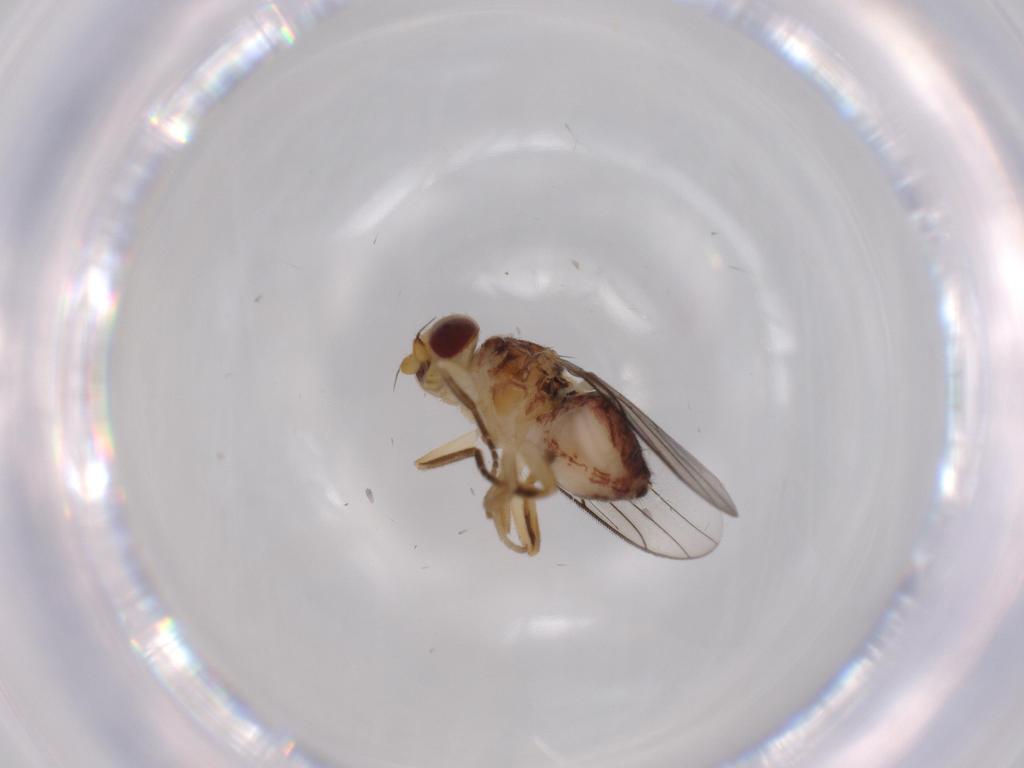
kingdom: Animalia
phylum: Arthropoda
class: Insecta
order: Diptera
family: Chloropidae
